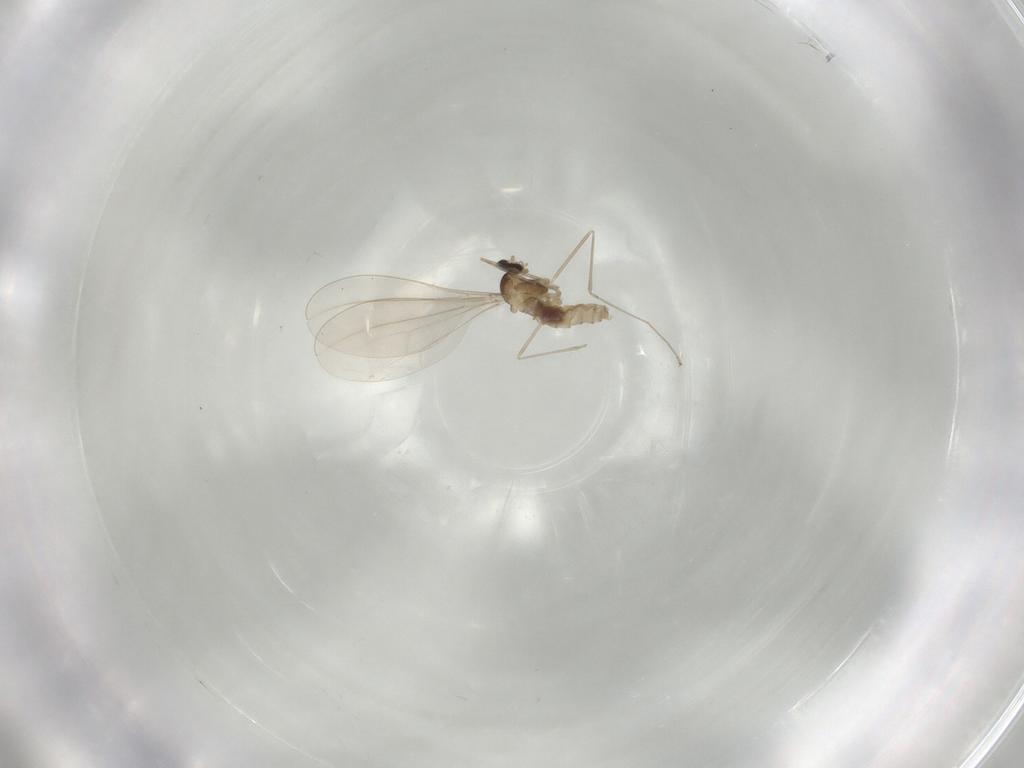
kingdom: Animalia
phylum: Arthropoda
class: Insecta
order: Diptera
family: Cecidomyiidae
